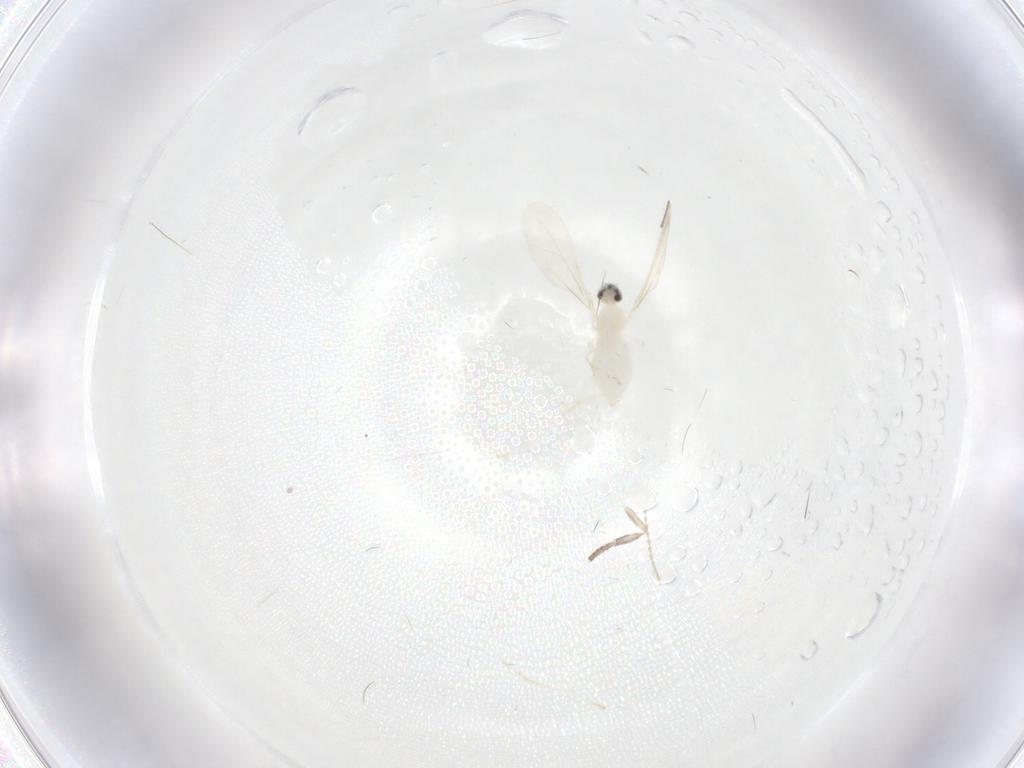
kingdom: Animalia
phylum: Arthropoda
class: Insecta
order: Diptera
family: Psychodidae
